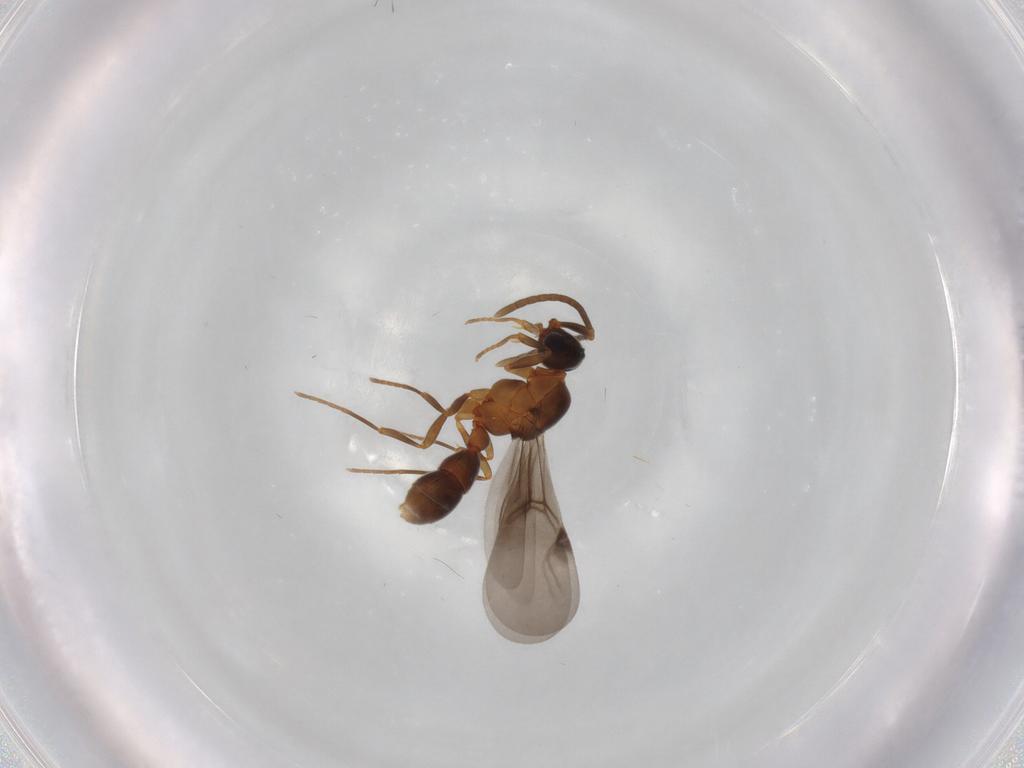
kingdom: Animalia
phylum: Arthropoda
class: Insecta
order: Hymenoptera
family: Formicidae
